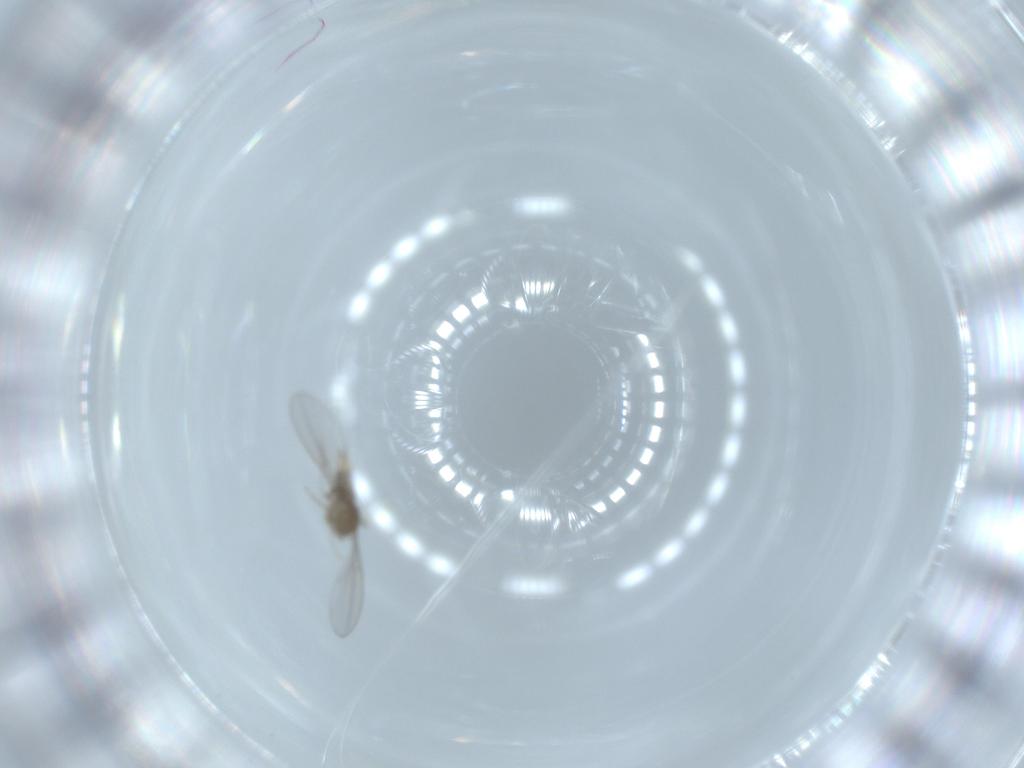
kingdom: Animalia
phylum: Arthropoda
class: Insecta
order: Diptera
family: Cecidomyiidae
